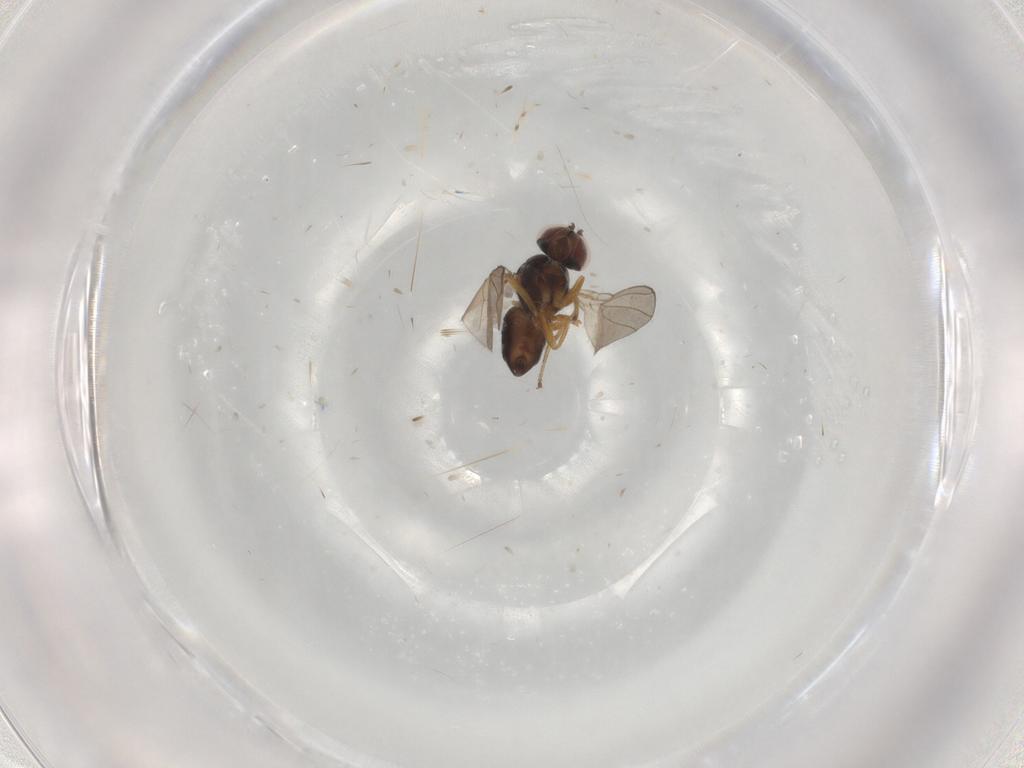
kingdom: Animalia
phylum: Arthropoda
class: Insecta
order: Diptera
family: Ephydridae
